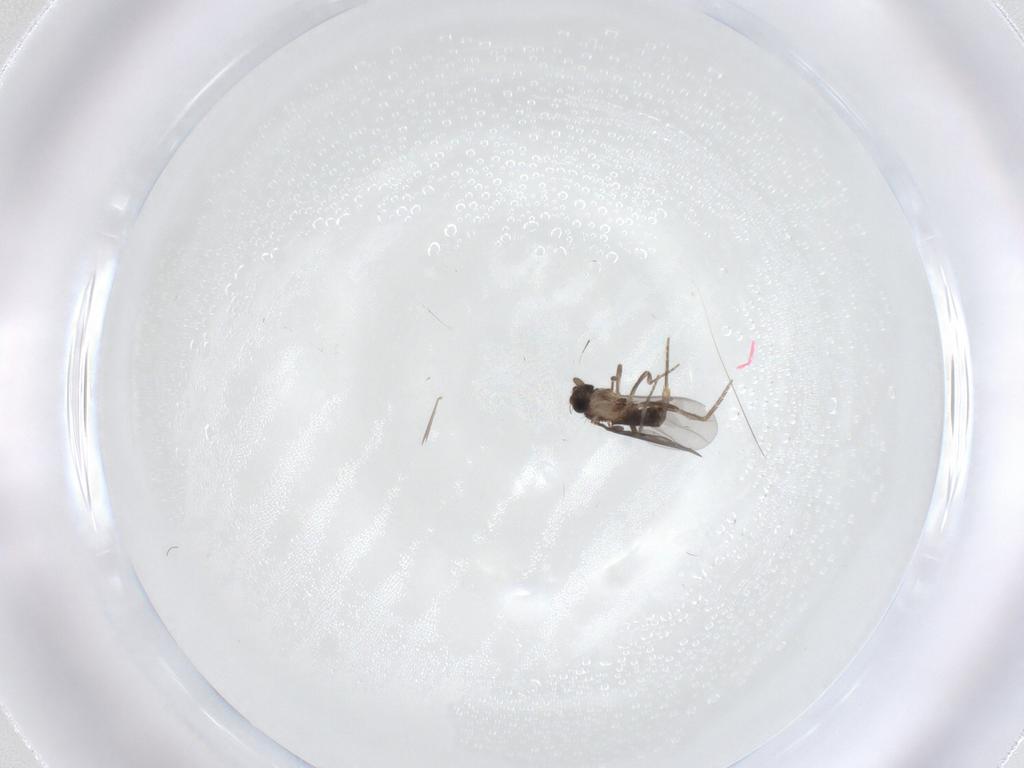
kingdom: Animalia
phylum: Arthropoda
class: Insecta
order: Diptera
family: Chironomidae
